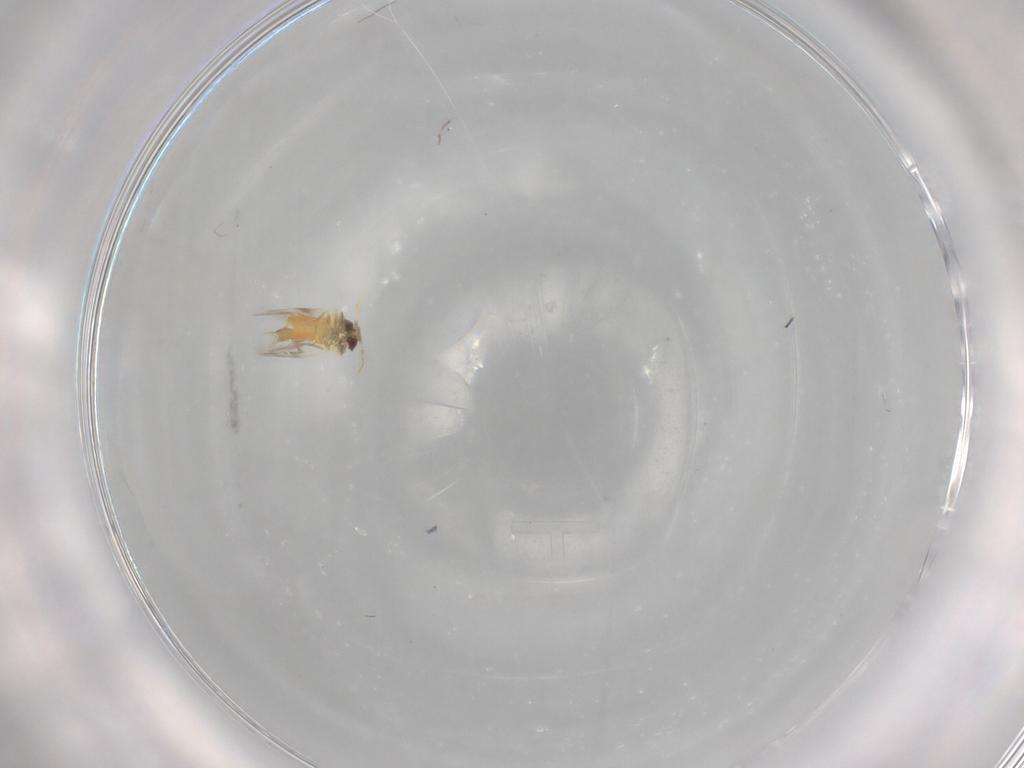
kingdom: Animalia
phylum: Arthropoda
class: Insecta
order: Hemiptera
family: Aleyrodidae
